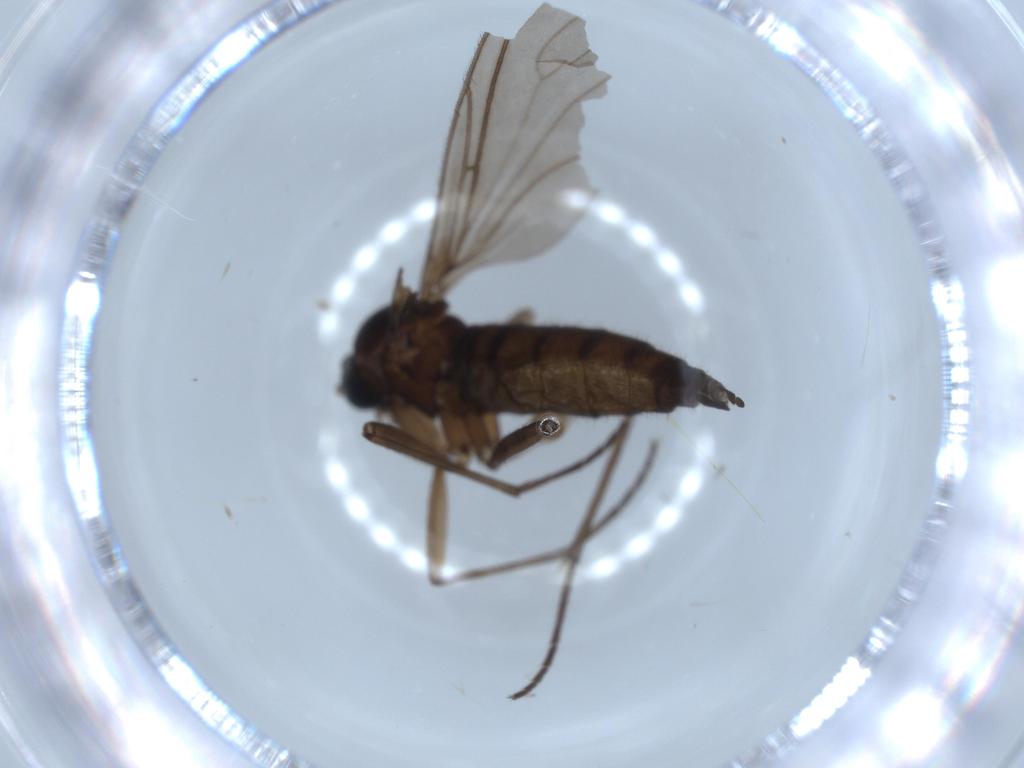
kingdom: Animalia
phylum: Arthropoda
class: Insecta
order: Diptera
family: Sciaridae
